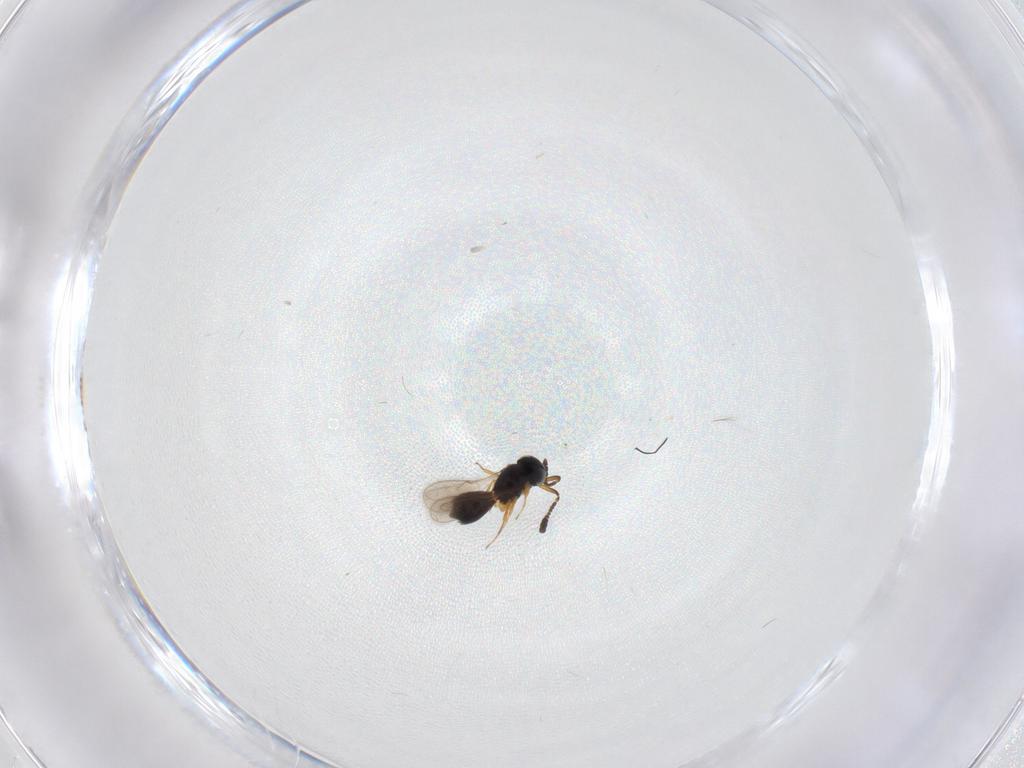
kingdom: Animalia
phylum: Arthropoda
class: Insecta
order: Hymenoptera
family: Scelionidae
